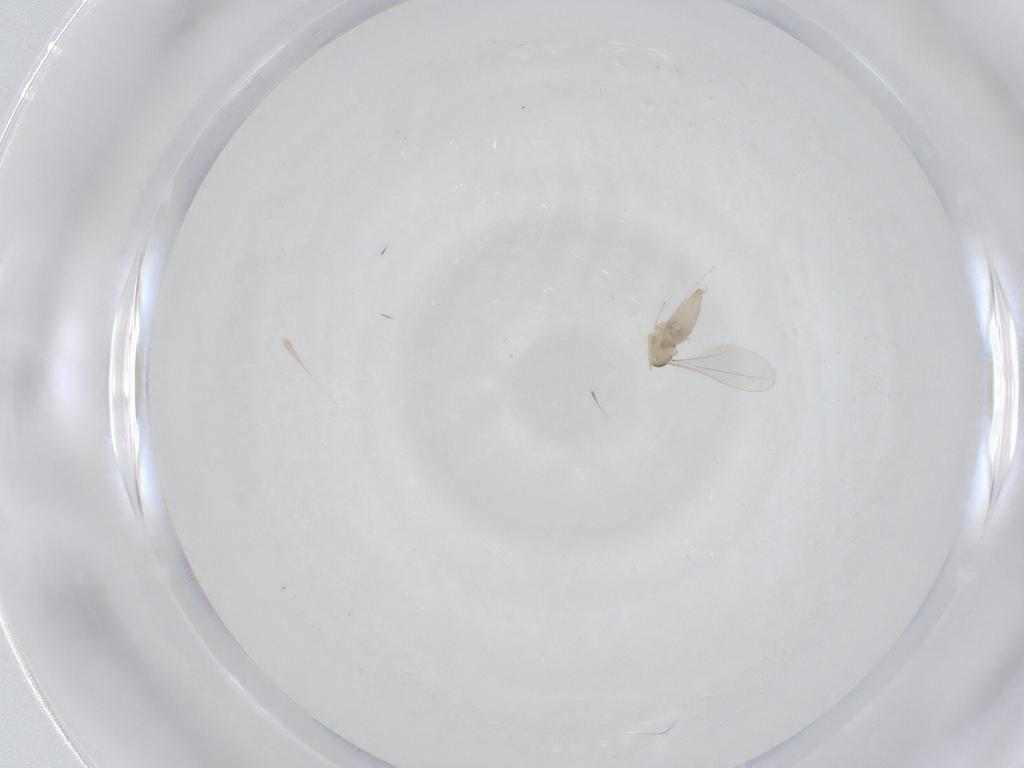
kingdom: Animalia
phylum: Arthropoda
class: Insecta
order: Diptera
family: Cecidomyiidae
